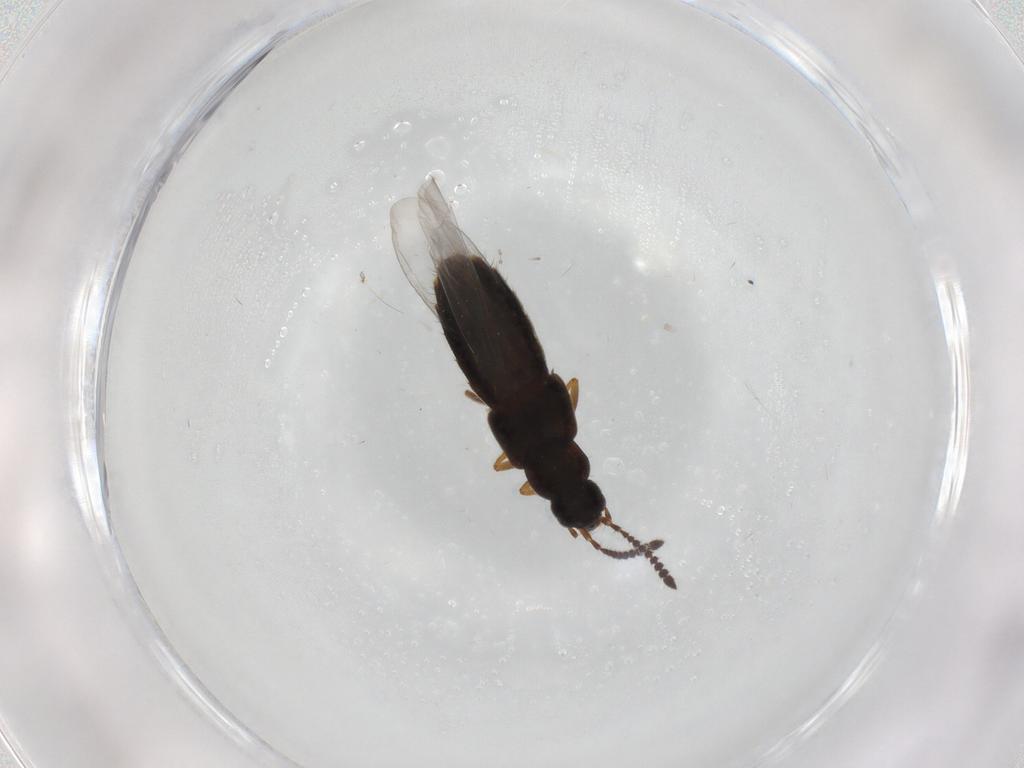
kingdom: Animalia
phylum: Arthropoda
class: Insecta
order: Coleoptera
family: Staphylinidae
